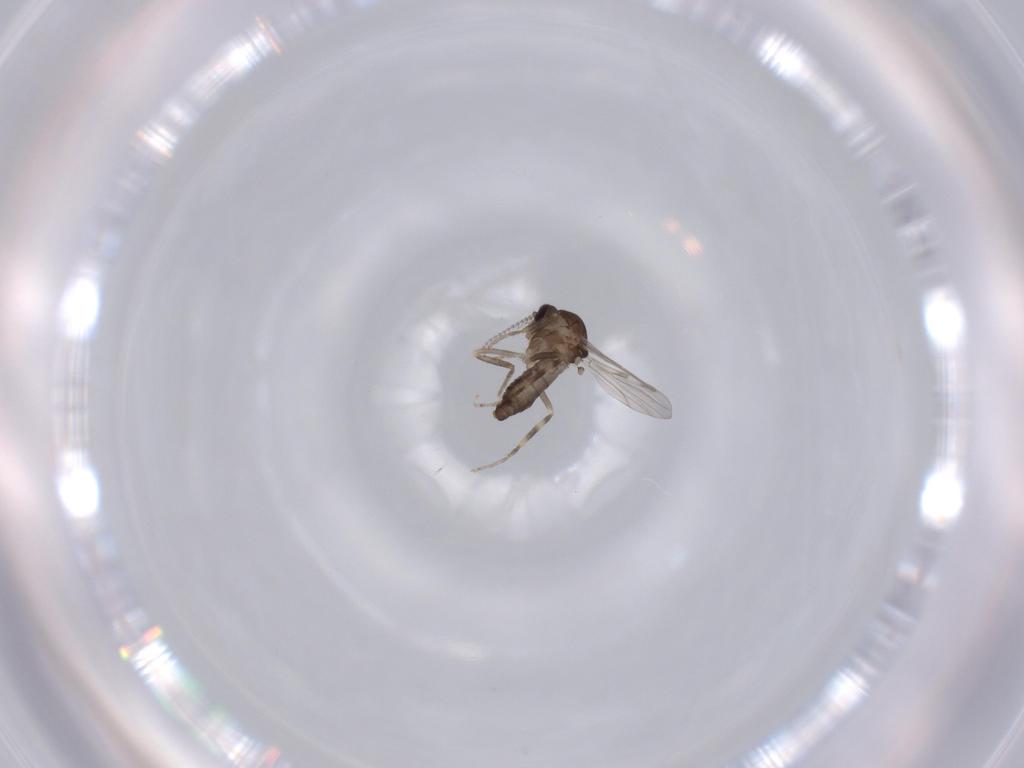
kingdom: Animalia
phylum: Arthropoda
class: Insecta
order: Diptera
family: Ceratopogonidae
